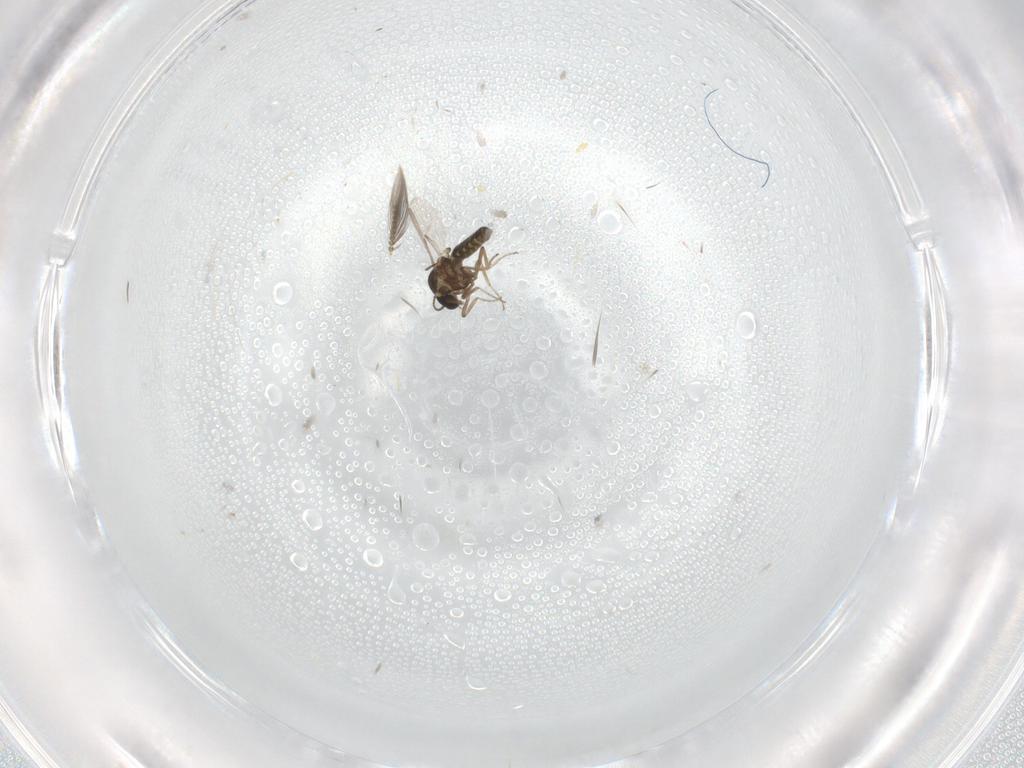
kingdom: Animalia
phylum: Arthropoda
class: Insecta
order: Diptera
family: Ceratopogonidae
